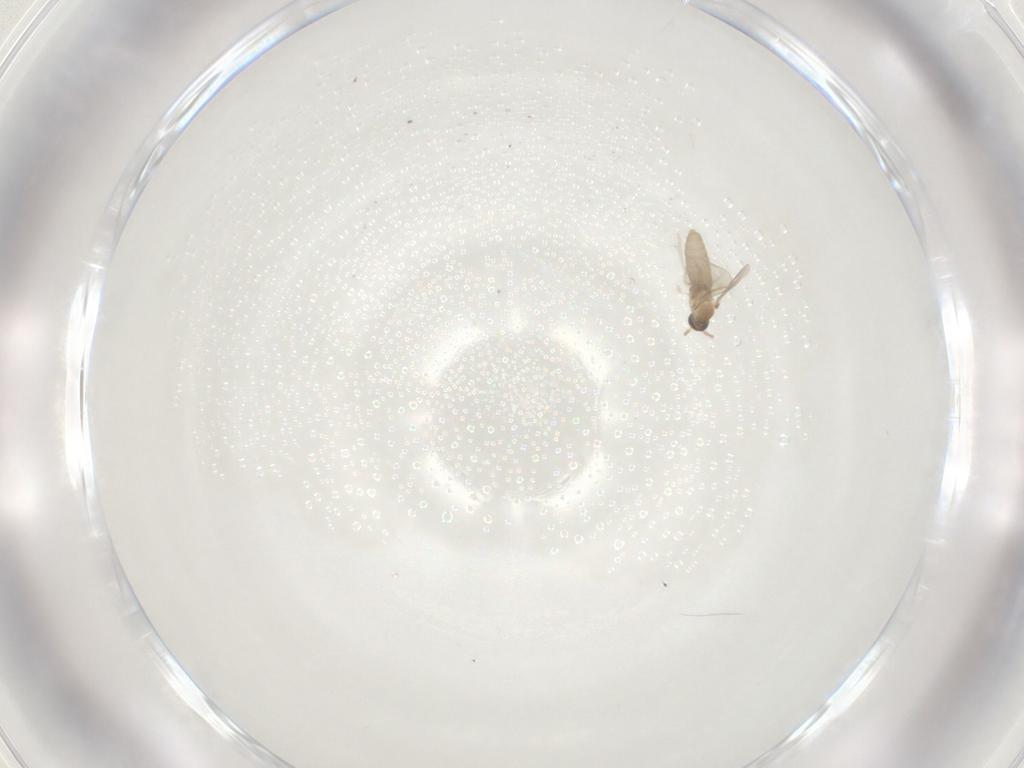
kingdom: Animalia
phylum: Arthropoda
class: Insecta
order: Diptera
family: Cecidomyiidae
